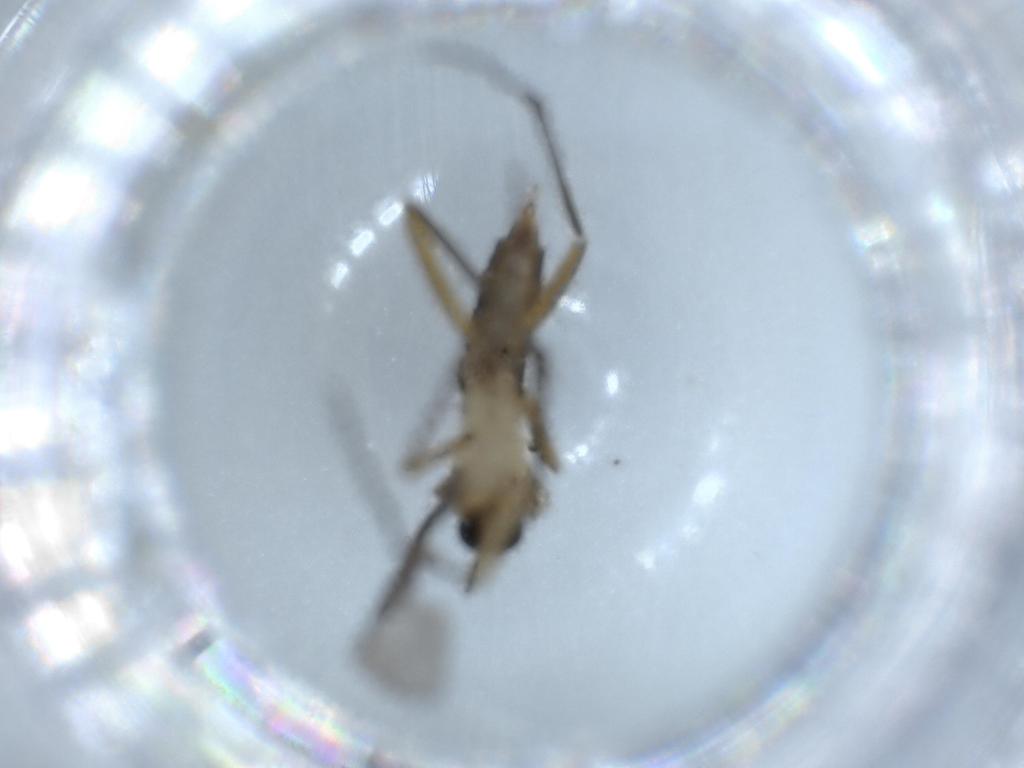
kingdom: Animalia
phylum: Arthropoda
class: Insecta
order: Diptera
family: Sciaridae
